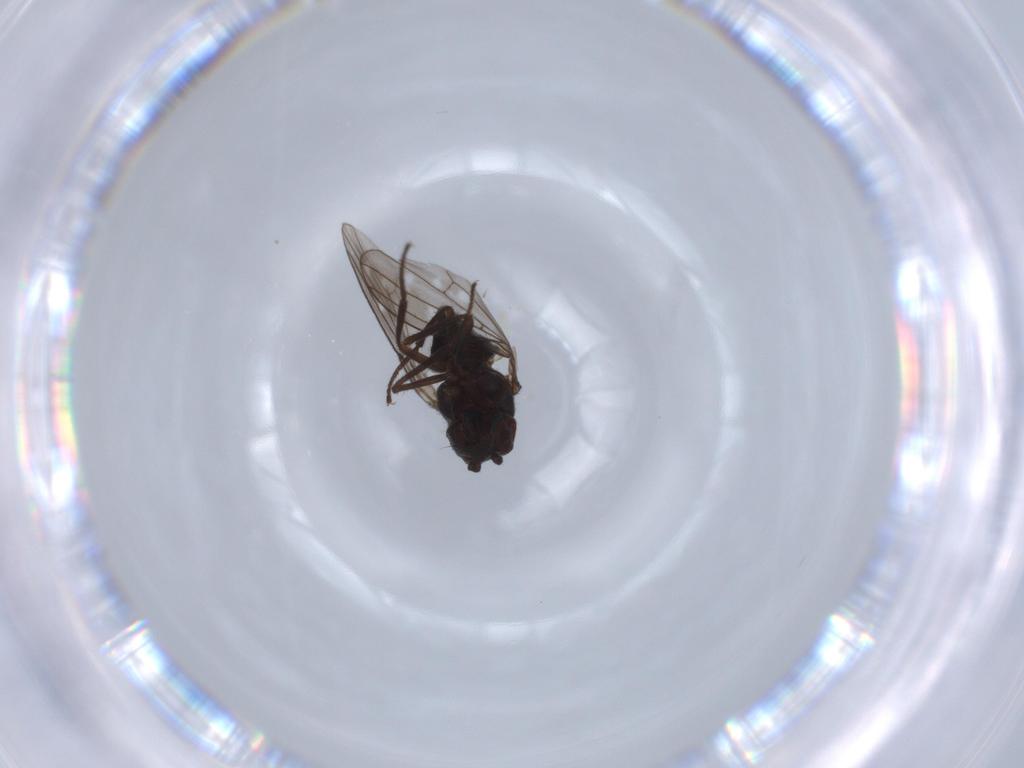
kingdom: Animalia
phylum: Arthropoda
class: Insecta
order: Diptera
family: Ephydridae
